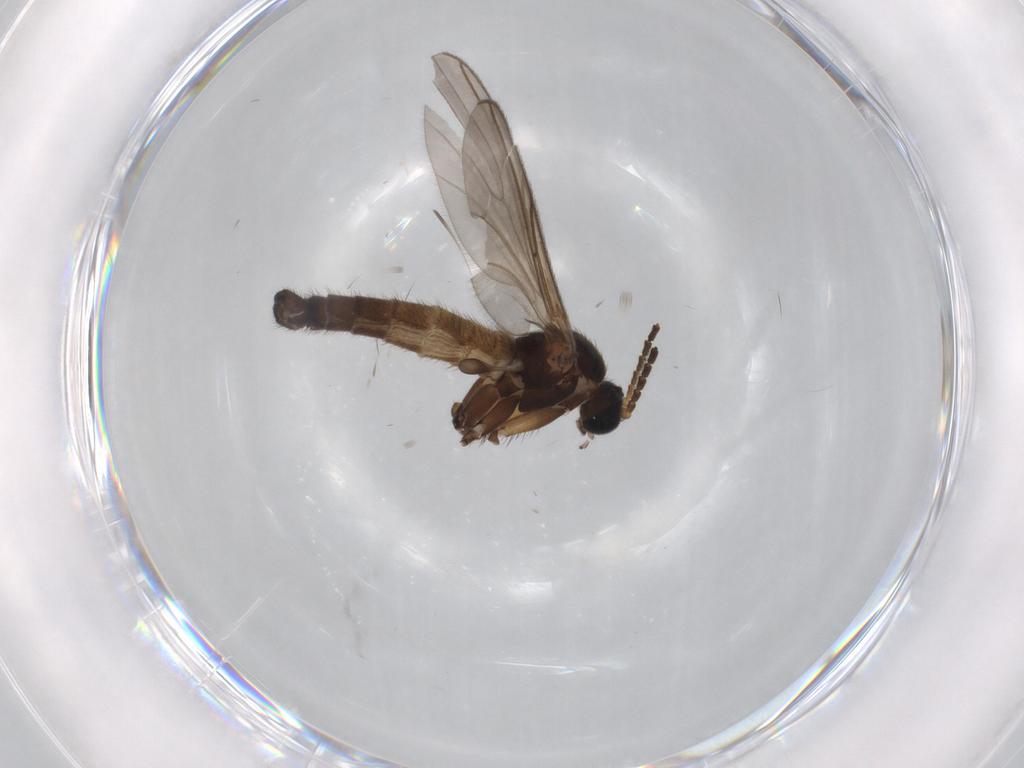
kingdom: Animalia
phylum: Arthropoda
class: Insecta
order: Diptera
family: Sciaridae
